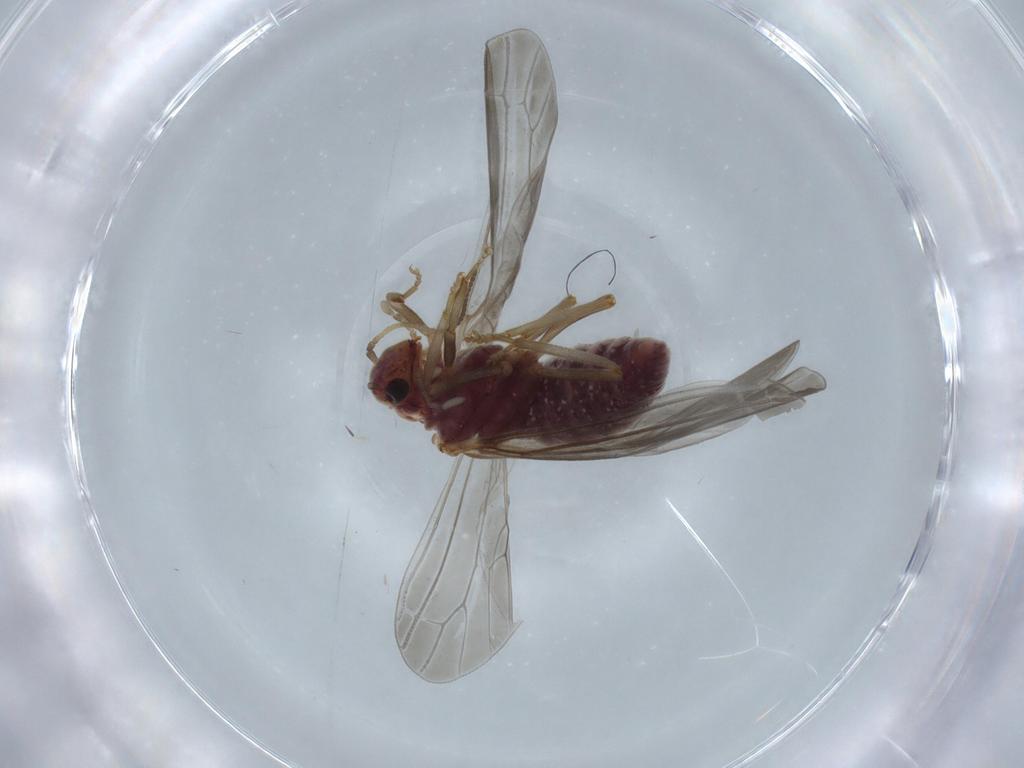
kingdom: Animalia
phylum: Arthropoda
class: Insecta
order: Neuroptera
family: Coniopterygidae
